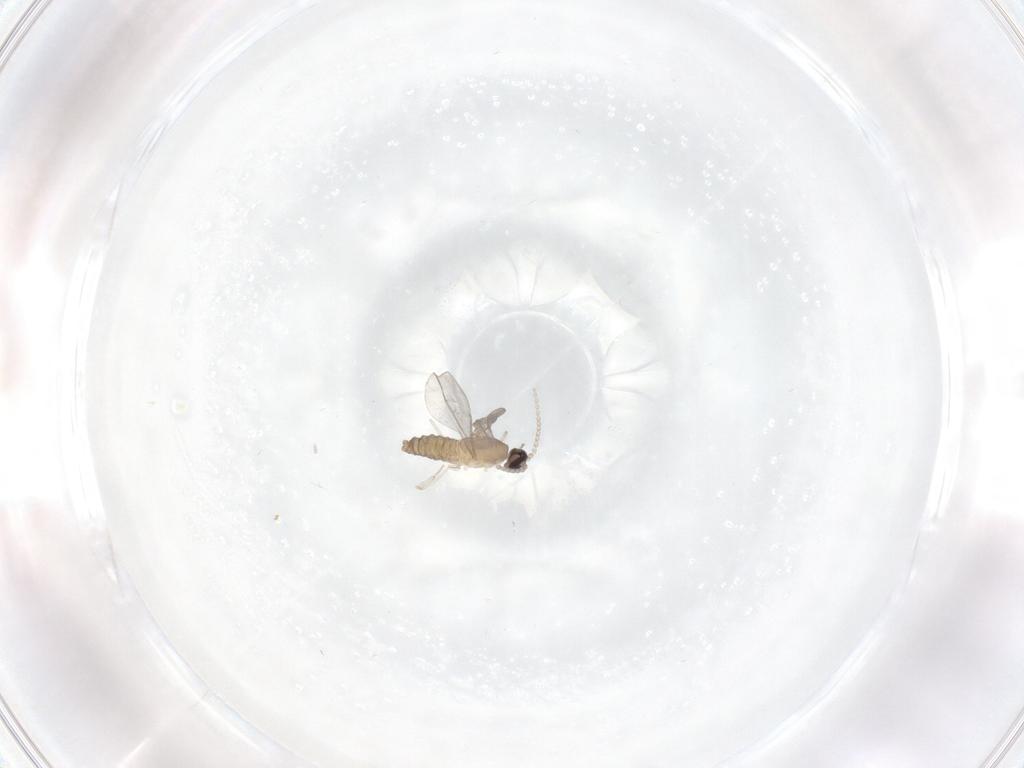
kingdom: Animalia
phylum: Arthropoda
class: Insecta
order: Diptera
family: Cecidomyiidae
